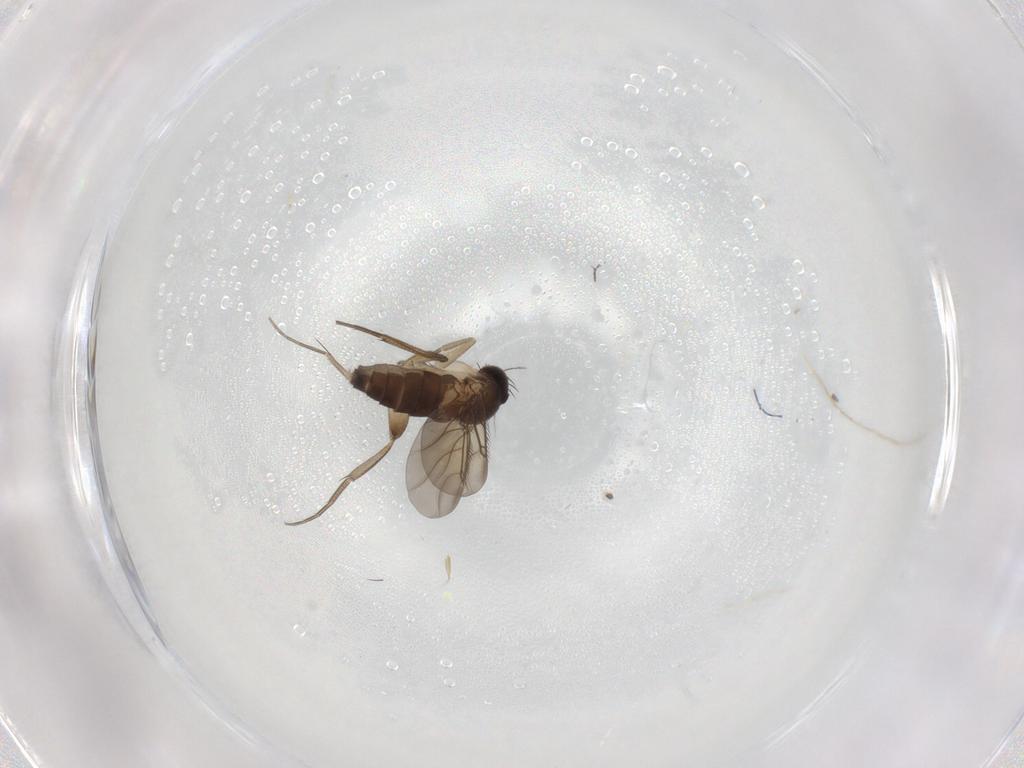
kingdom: Animalia
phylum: Arthropoda
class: Insecta
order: Diptera
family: Phoridae
